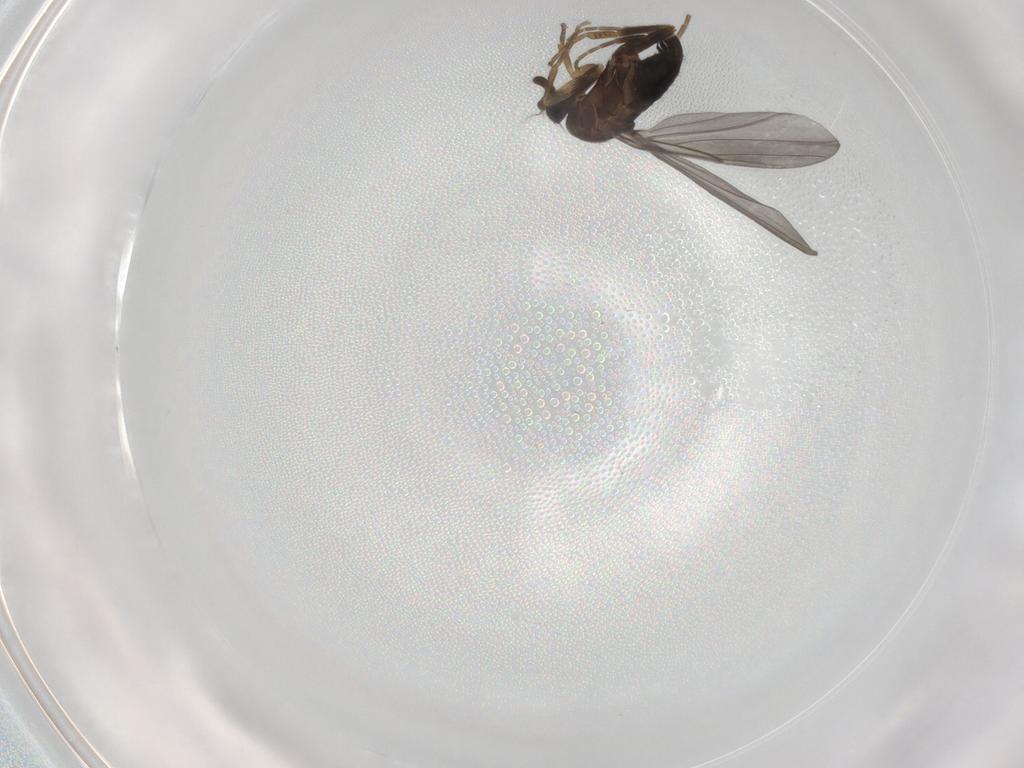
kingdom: Animalia
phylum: Arthropoda
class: Insecta
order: Diptera
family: Phoridae
